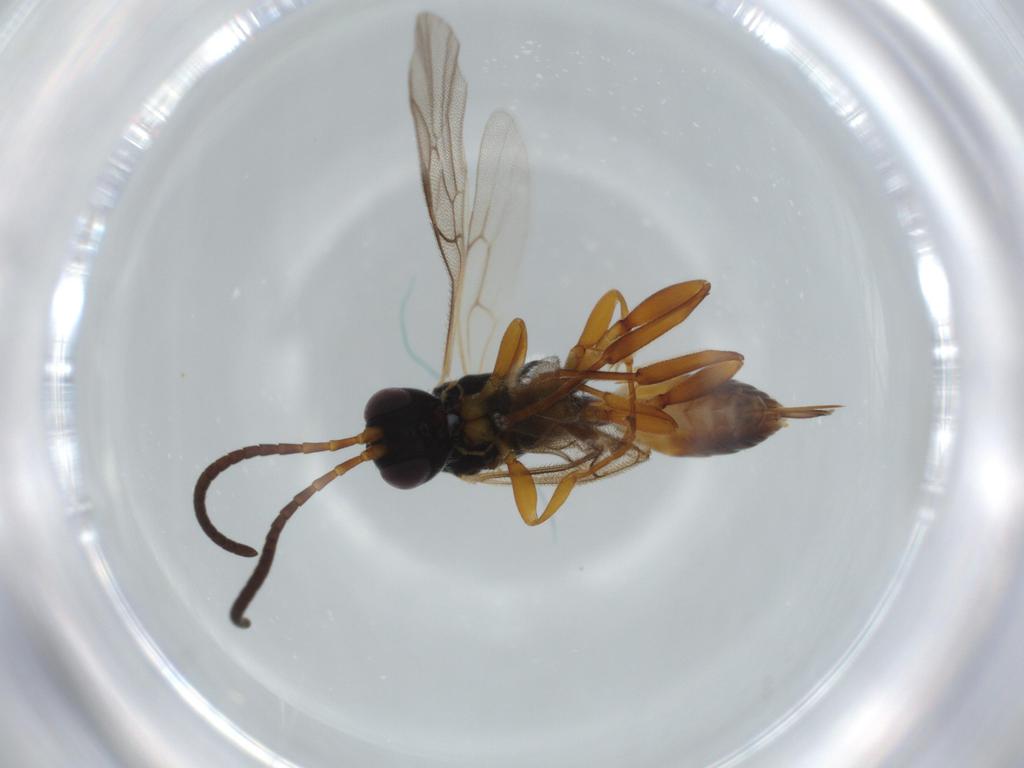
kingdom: Animalia
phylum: Arthropoda
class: Insecta
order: Hymenoptera
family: Ichneumonidae
